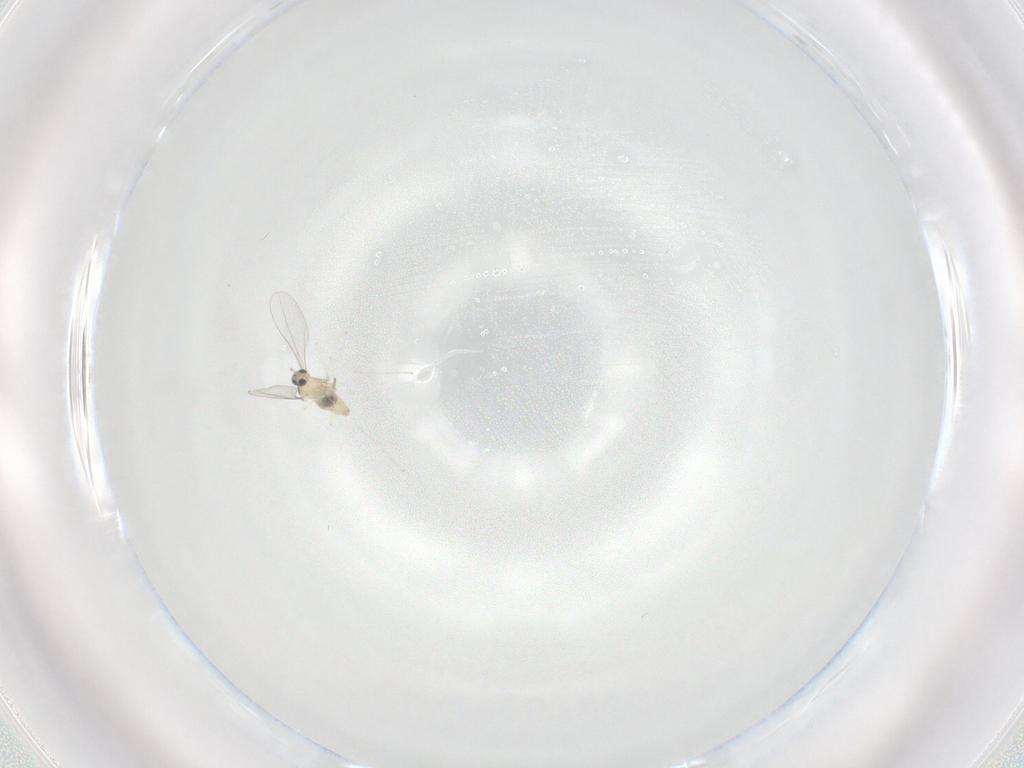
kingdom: Animalia
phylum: Arthropoda
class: Insecta
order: Diptera
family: Cecidomyiidae
